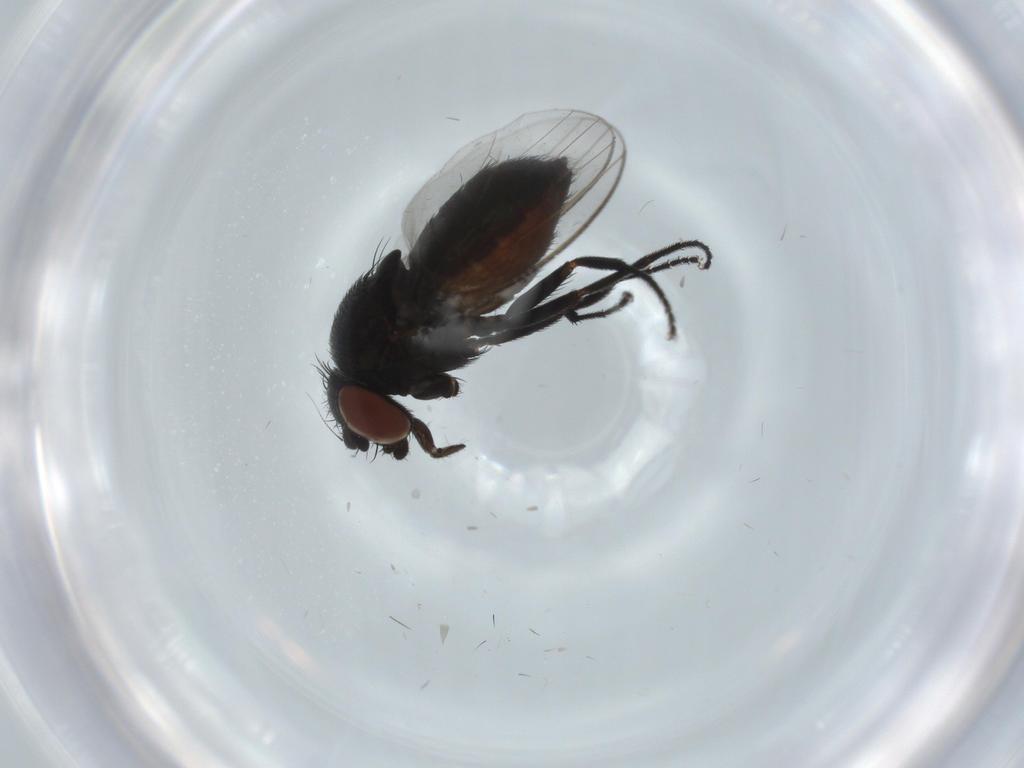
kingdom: Animalia
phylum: Arthropoda
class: Insecta
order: Diptera
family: Milichiidae
